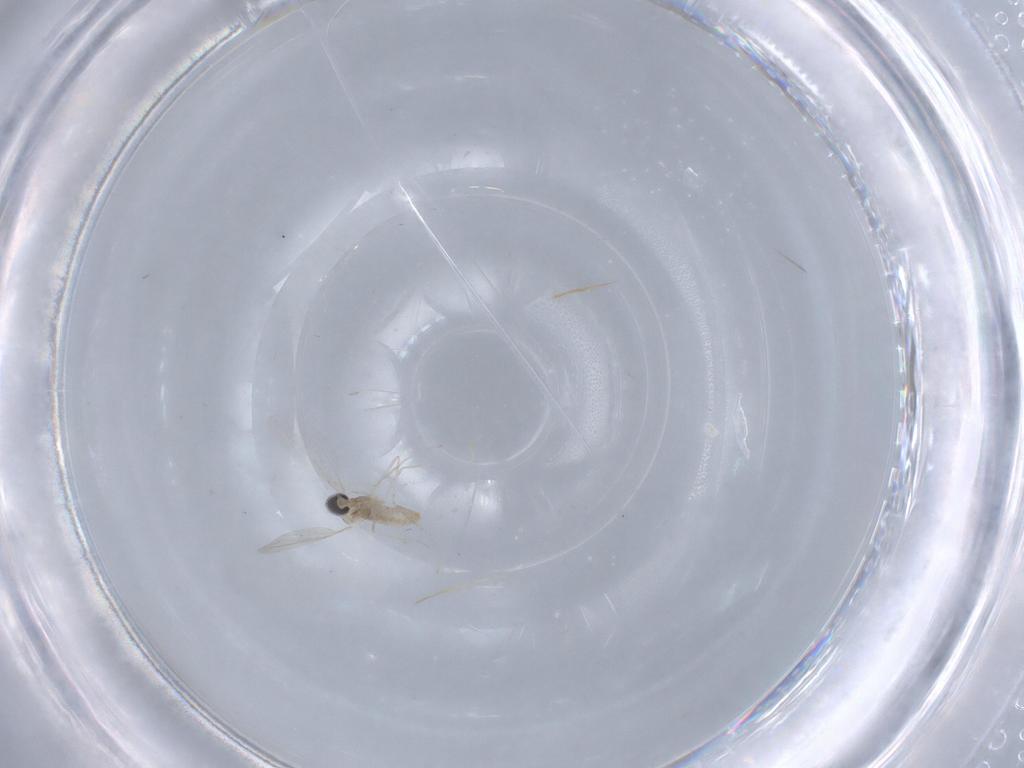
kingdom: Animalia
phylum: Arthropoda
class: Insecta
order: Diptera
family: Cecidomyiidae
